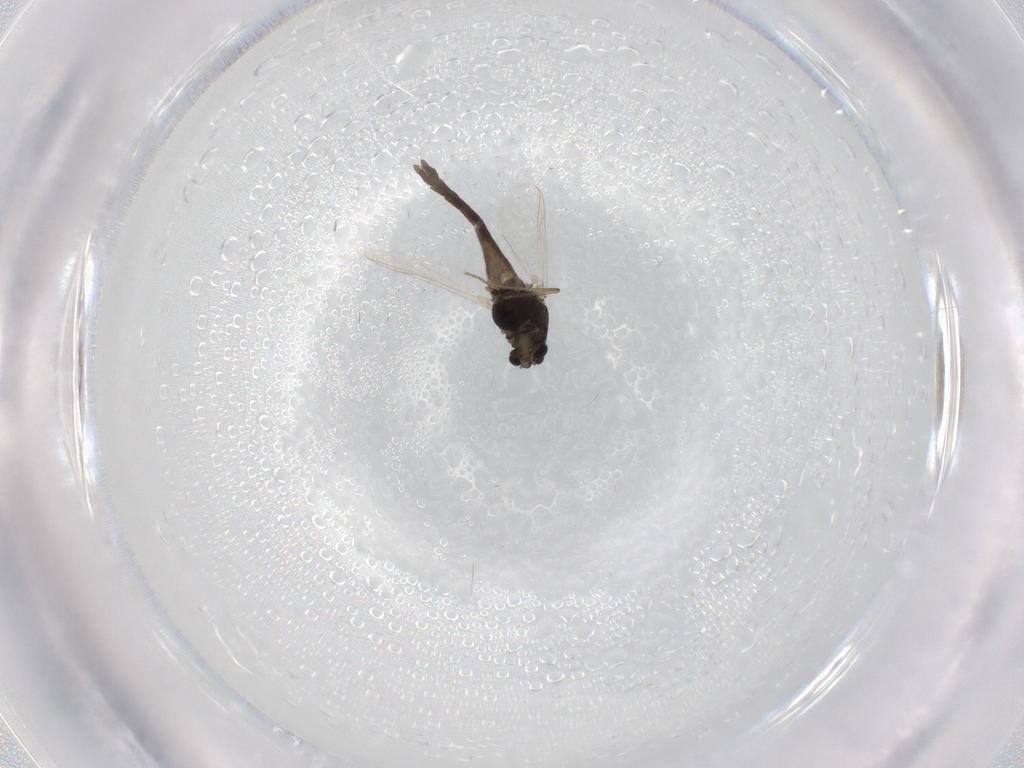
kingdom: Animalia
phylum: Arthropoda
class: Insecta
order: Diptera
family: Chironomidae
